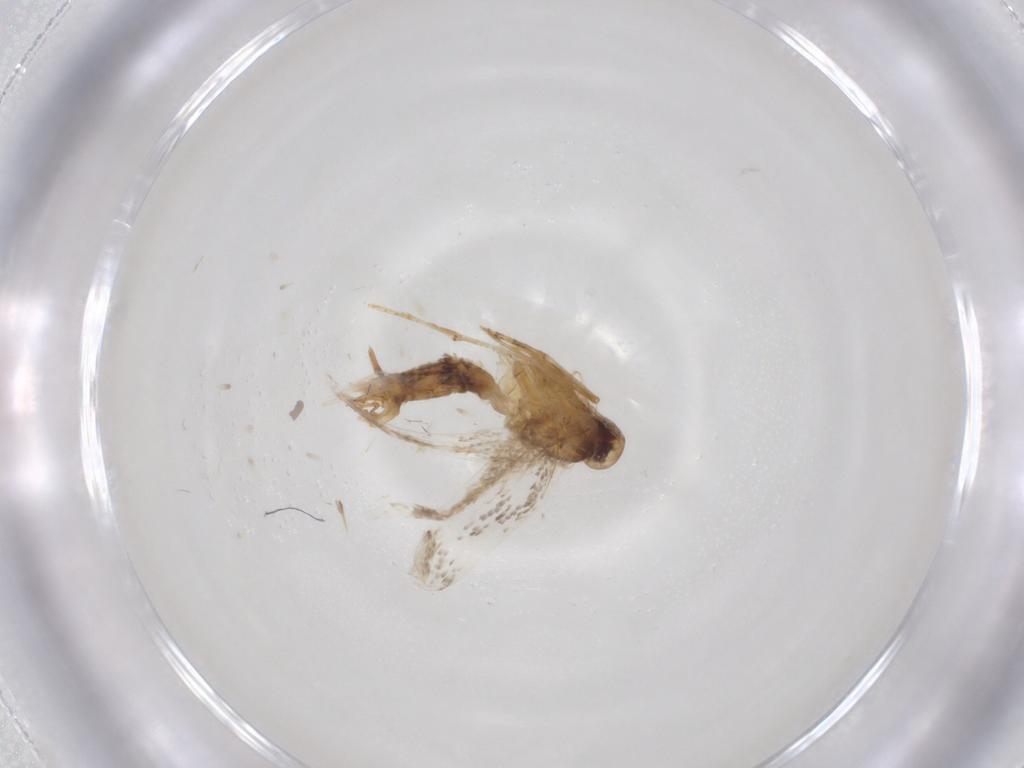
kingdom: Animalia
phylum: Arthropoda
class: Insecta
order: Lepidoptera
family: Gelechiidae
